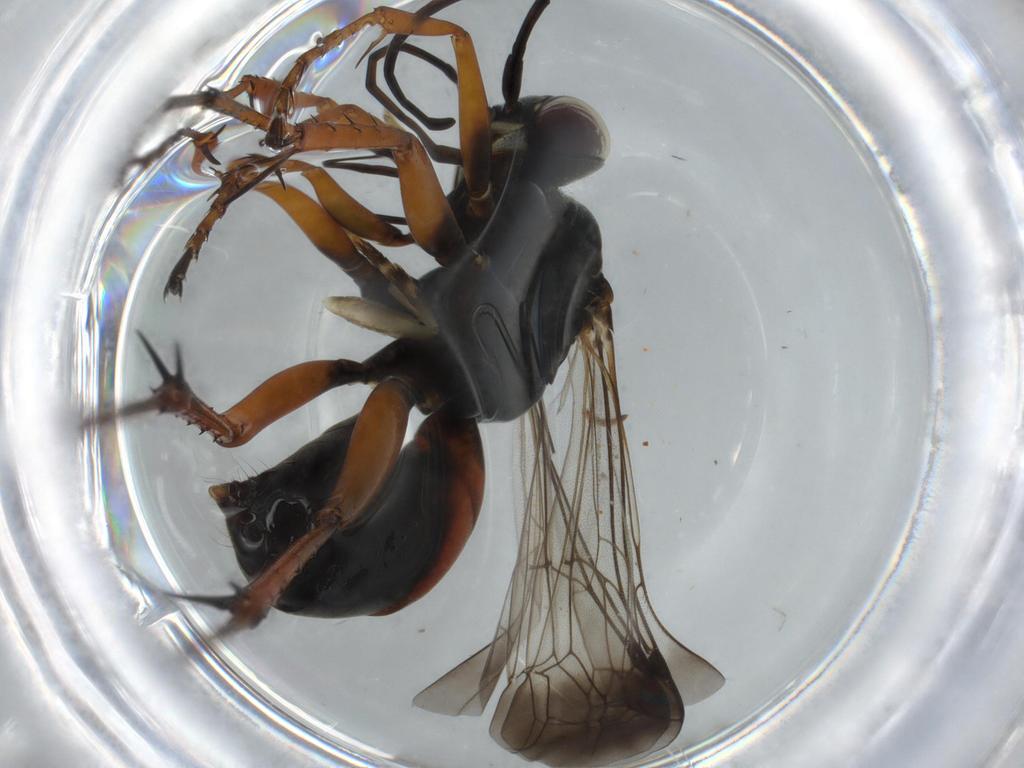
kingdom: Animalia
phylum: Arthropoda
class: Insecta
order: Hymenoptera
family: Pompilidae
